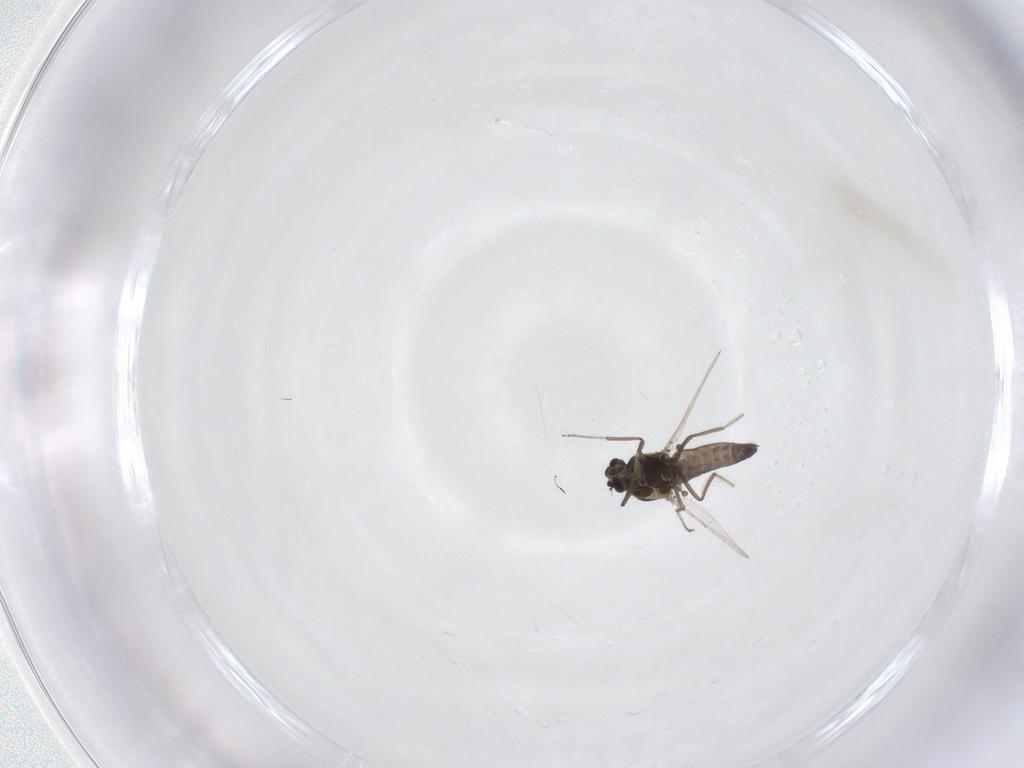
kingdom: Animalia
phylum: Arthropoda
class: Insecta
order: Diptera
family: Ceratopogonidae
